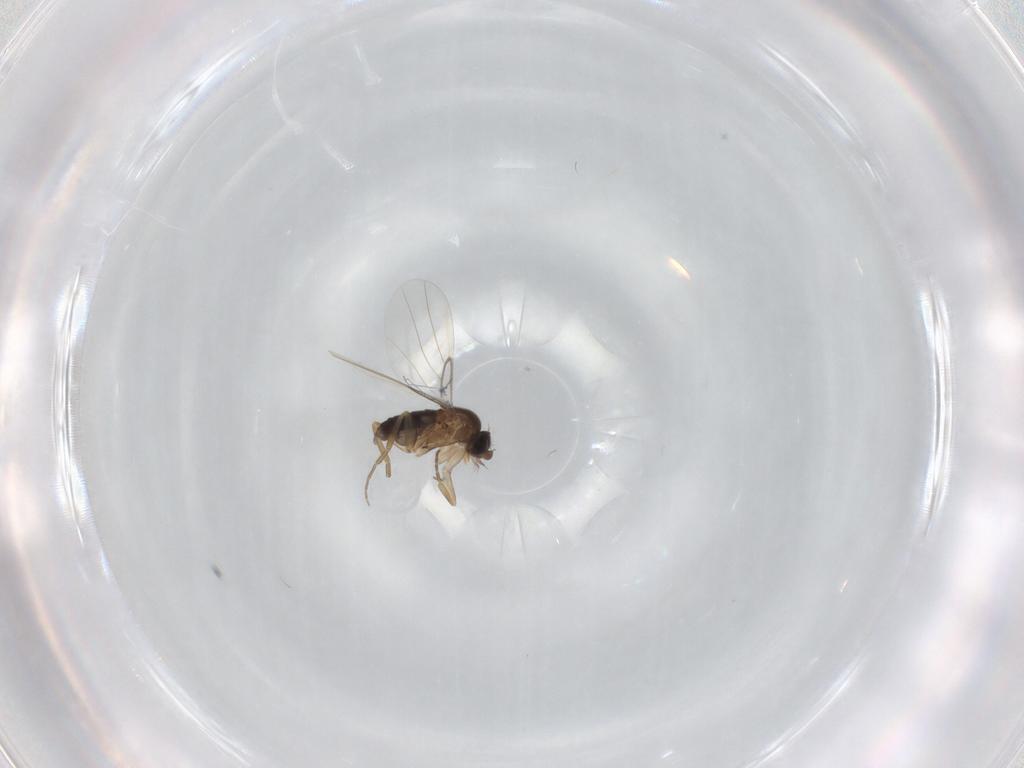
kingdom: Animalia
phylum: Arthropoda
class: Insecta
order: Diptera
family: Phoridae
